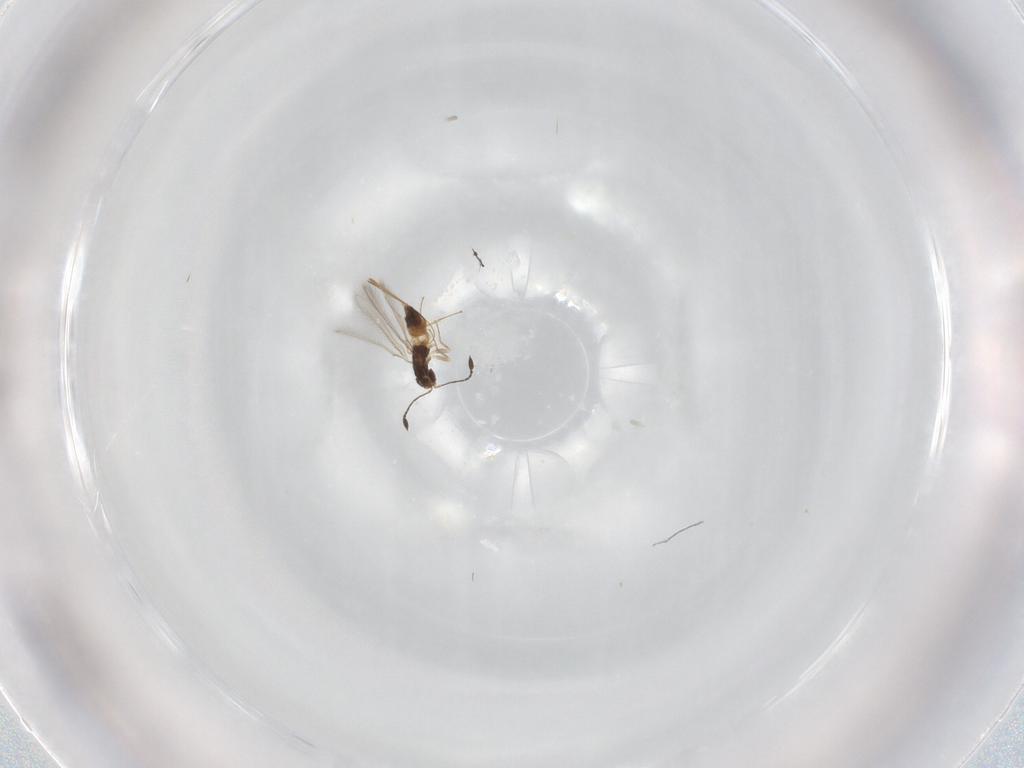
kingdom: Animalia
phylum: Arthropoda
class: Insecta
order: Hymenoptera
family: Mymaridae
